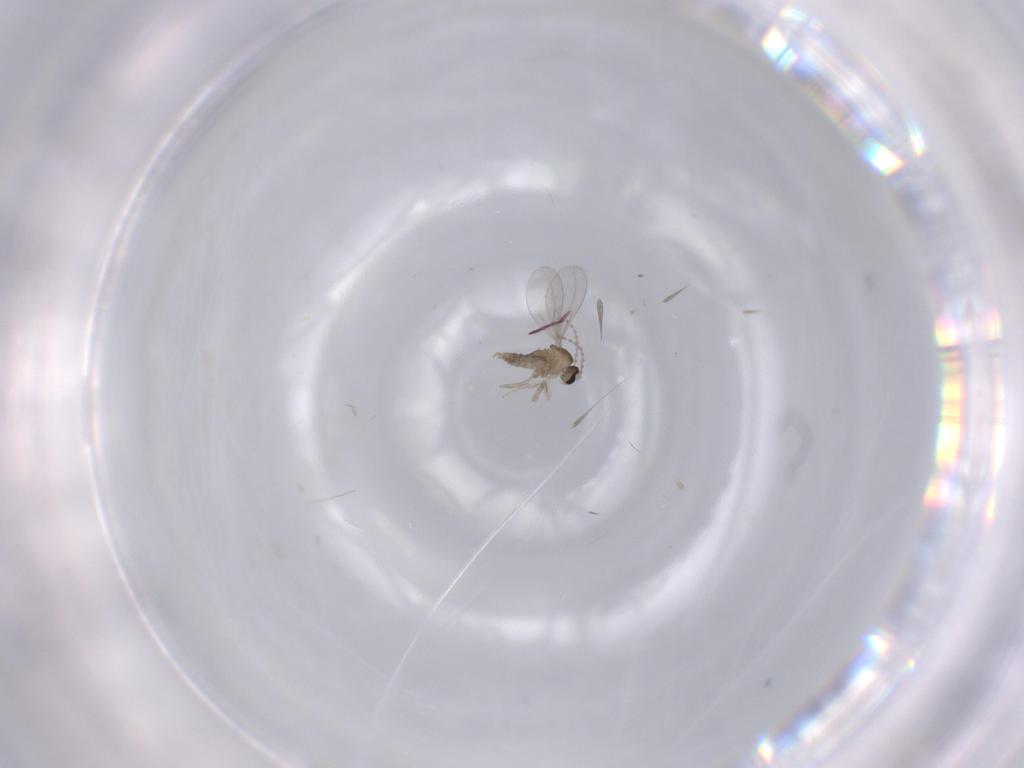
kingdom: Animalia
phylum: Arthropoda
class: Insecta
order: Diptera
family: Cecidomyiidae
